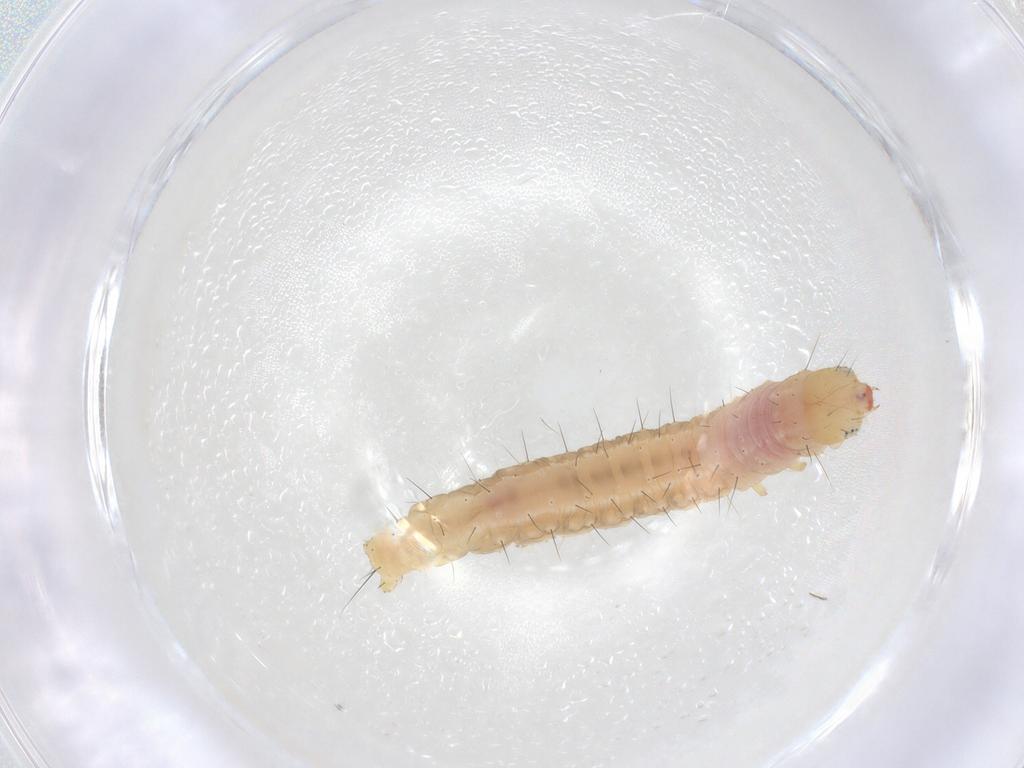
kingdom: Animalia
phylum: Arthropoda
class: Insecta
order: Lepidoptera
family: Gelechiidae
